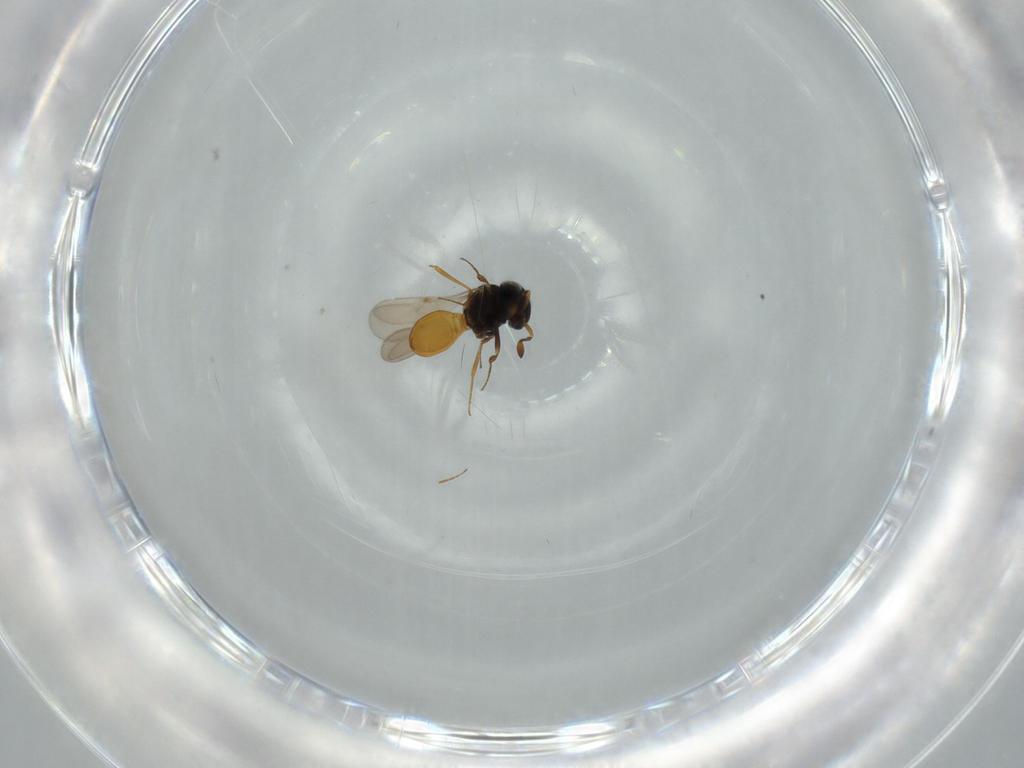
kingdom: Animalia
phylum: Arthropoda
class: Insecta
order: Hymenoptera
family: Scelionidae
